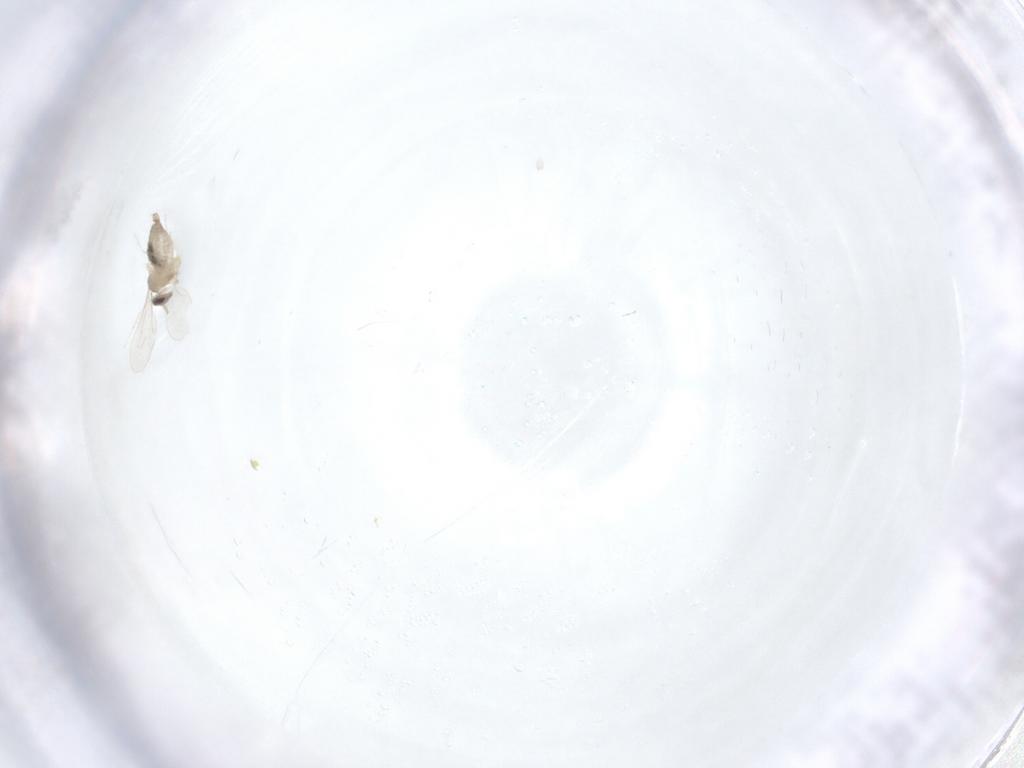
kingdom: Animalia
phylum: Arthropoda
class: Insecta
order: Diptera
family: Cecidomyiidae
